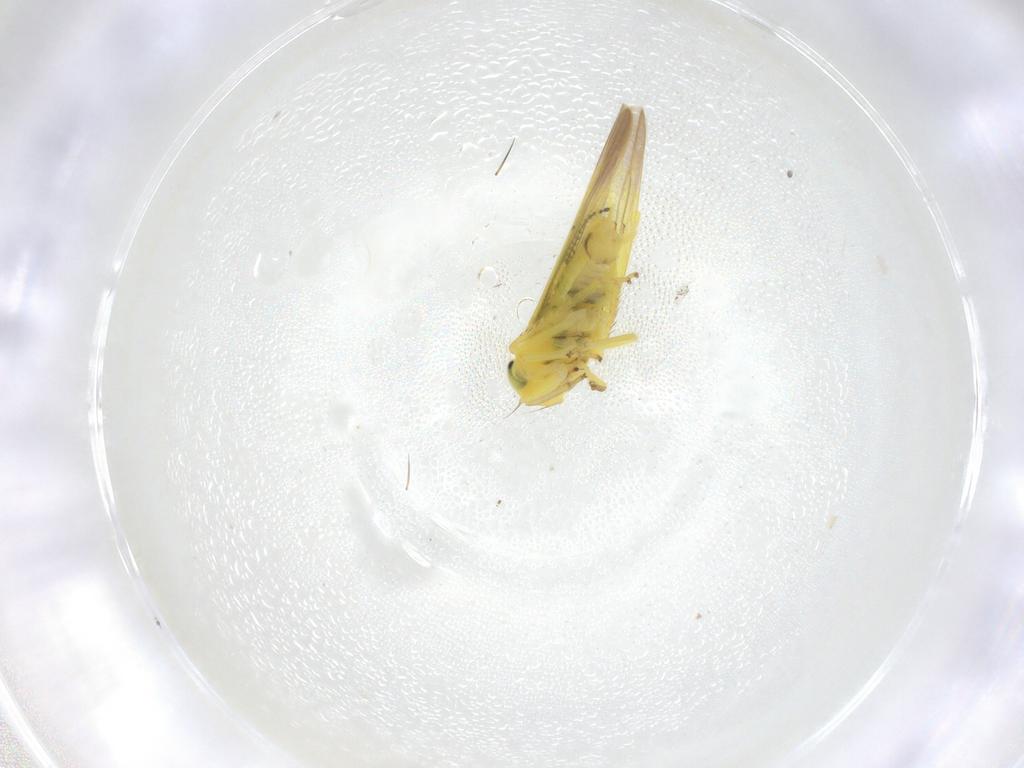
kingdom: Animalia
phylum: Arthropoda
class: Insecta
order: Hemiptera
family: Cicadellidae
